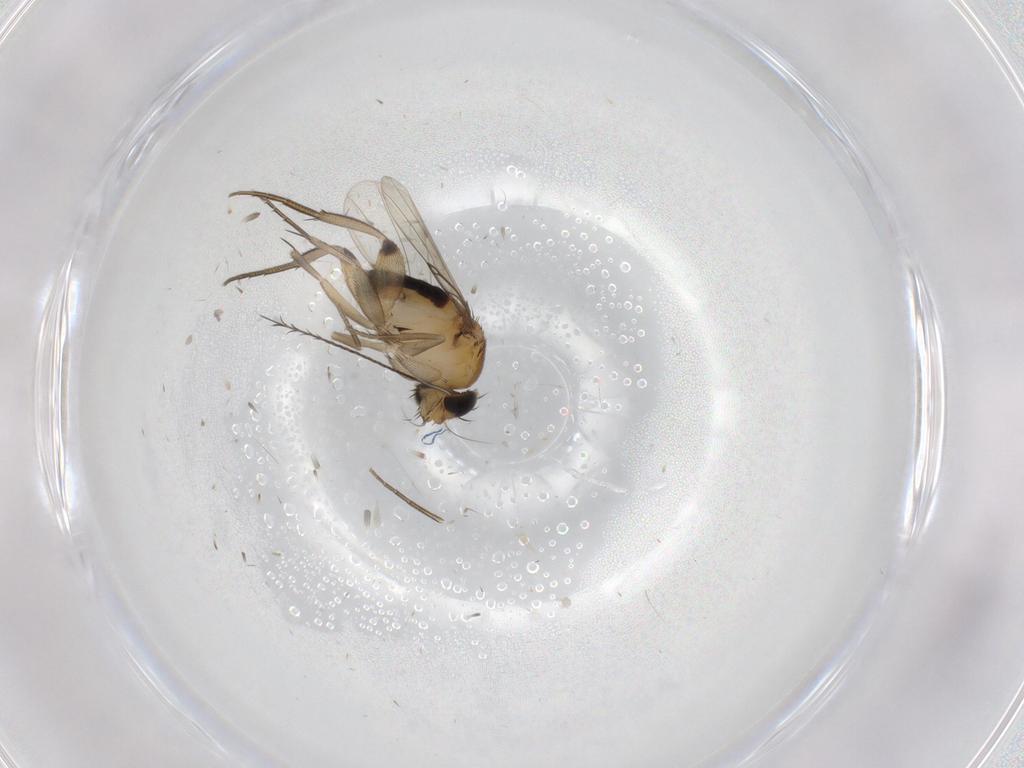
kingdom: Animalia
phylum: Arthropoda
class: Insecta
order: Diptera
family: Phoridae
